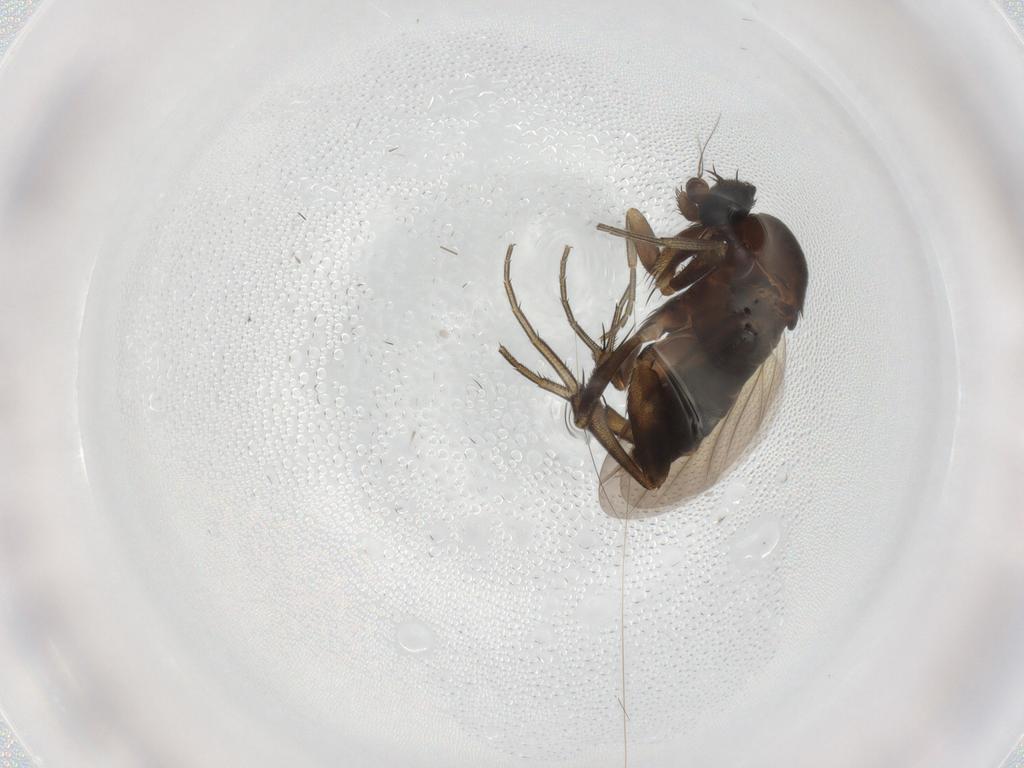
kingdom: Animalia
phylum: Arthropoda
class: Insecta
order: Diptera
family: Phoridae
